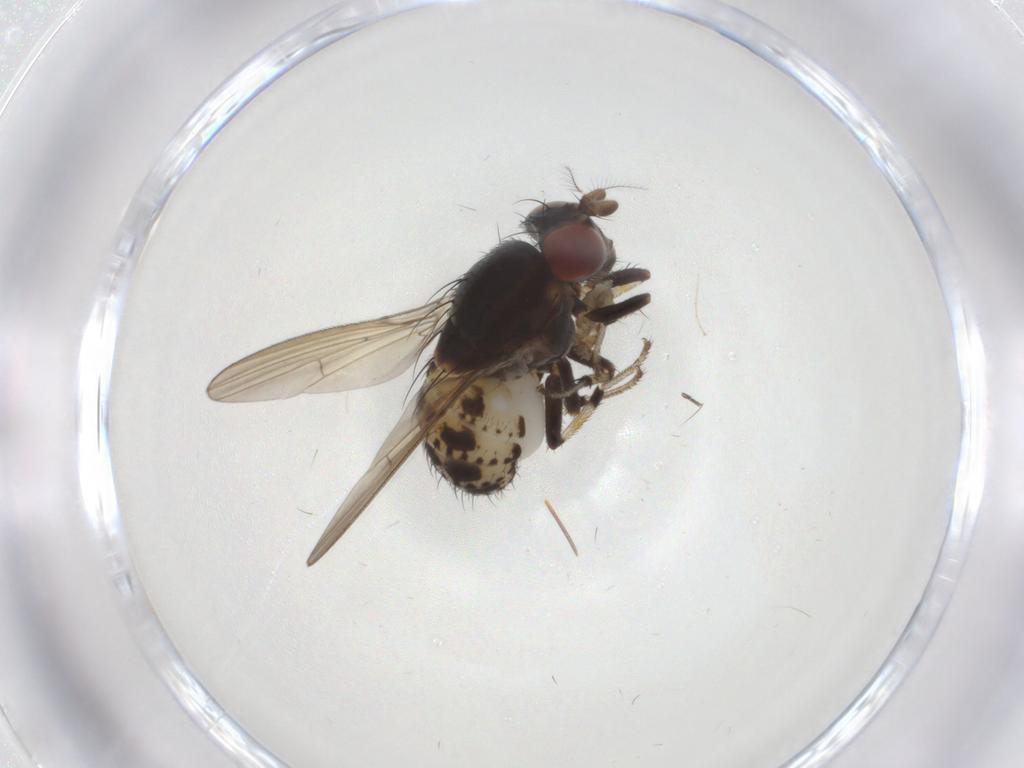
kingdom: Animalia
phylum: Arthropoda
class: Insecta
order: Diptera
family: Chironomidae
